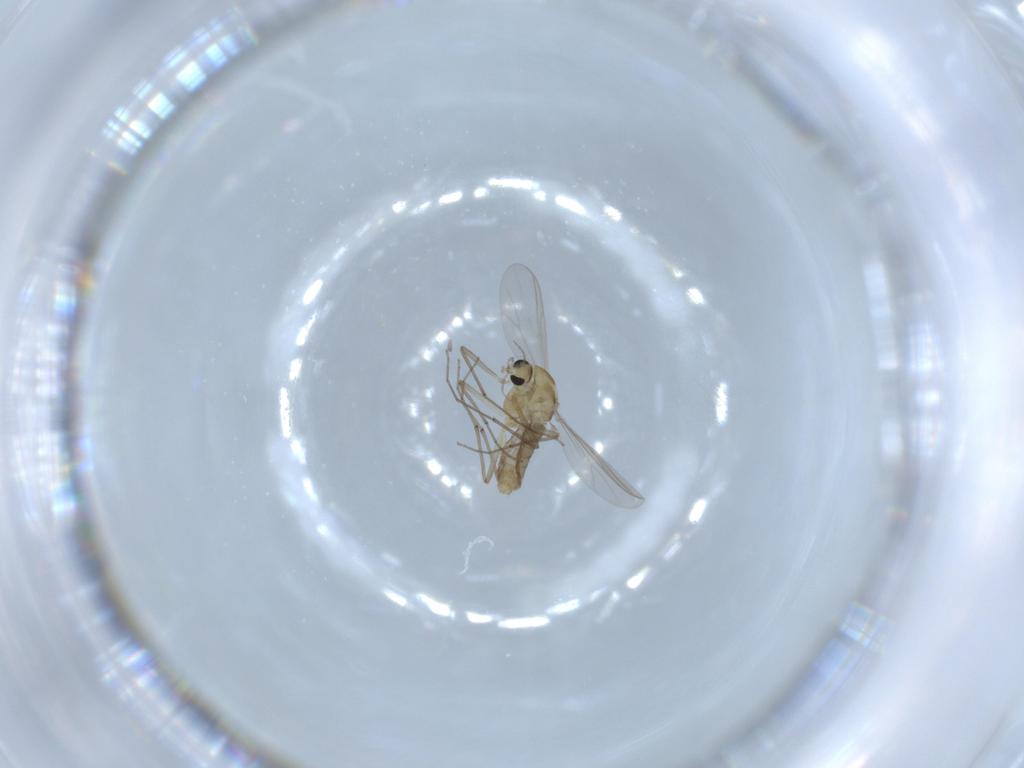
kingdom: Animalia
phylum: Arthropoda
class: Insecta
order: Diptera
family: Chironomidae
